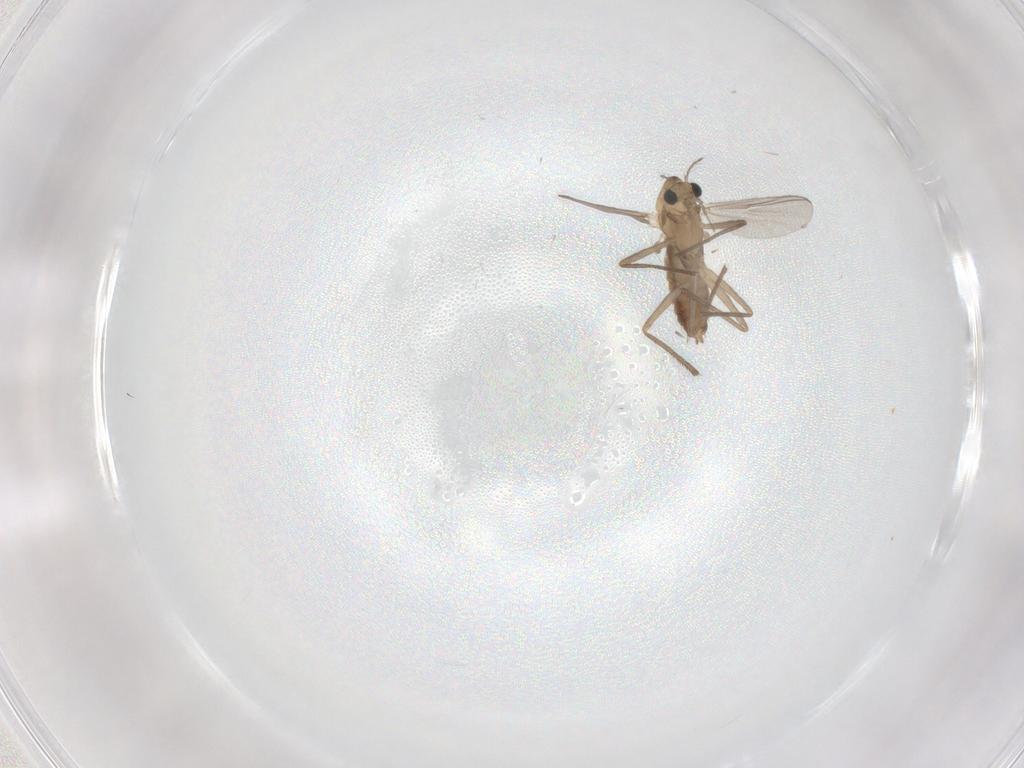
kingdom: Animalia
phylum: Arthropoda
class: Insecta
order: Diptera
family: Chironomidae
